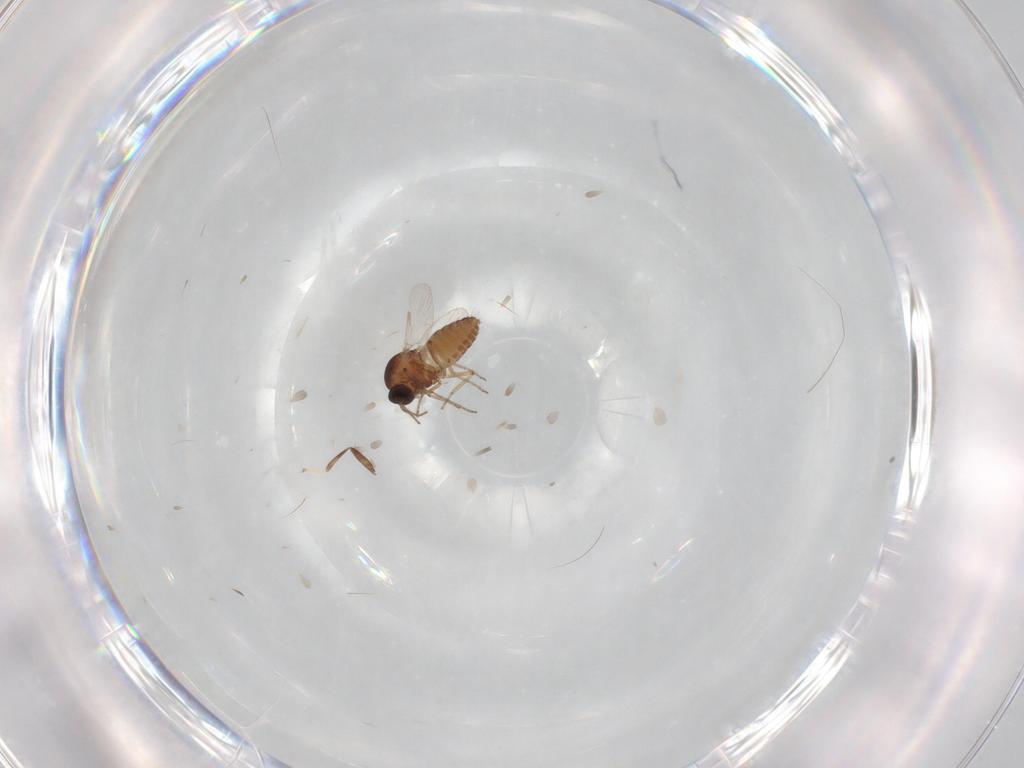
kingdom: Animalia
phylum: Arthropoda
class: Insecta
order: Diptera
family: Ceratopogonidae
